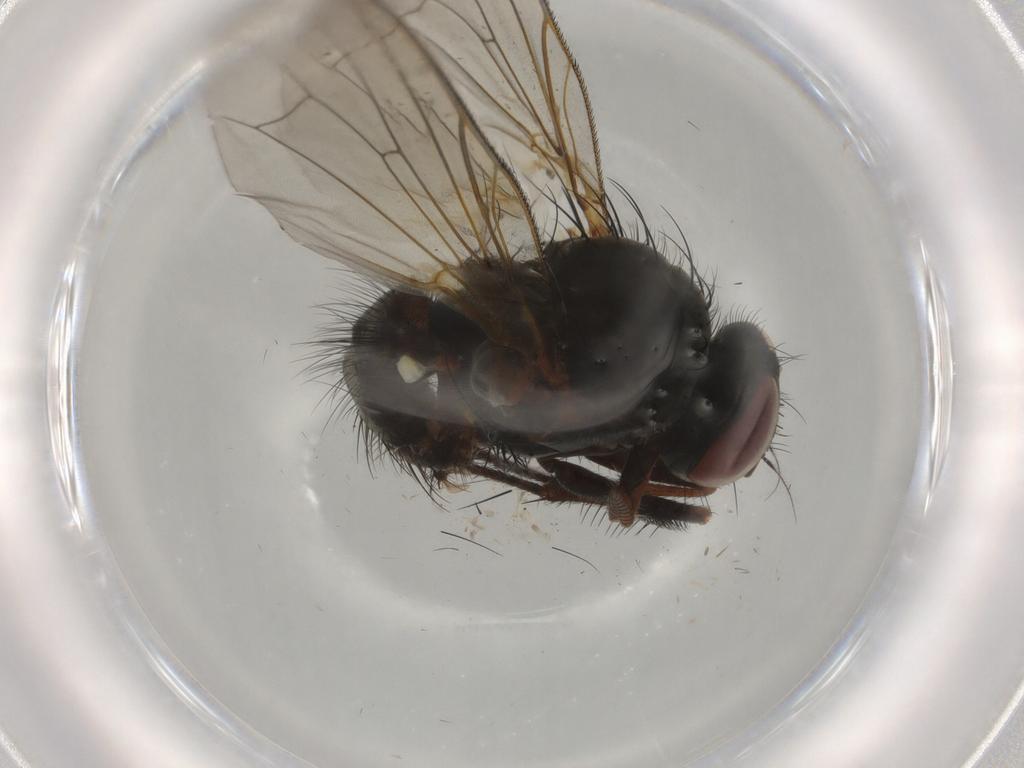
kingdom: Animalia
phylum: Arthropoda
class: Insecta
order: Diptera
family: Anthomyiidae
